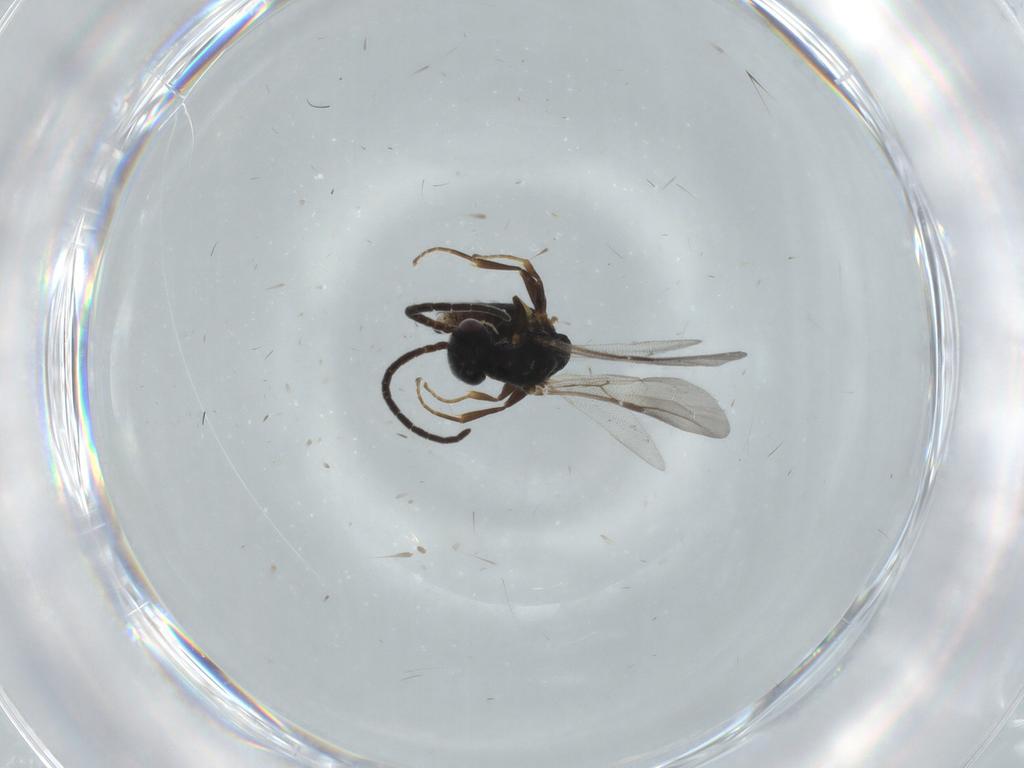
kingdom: Animalia
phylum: Arthropoda
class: Insecta
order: Hymenoptera
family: Bethylidae
